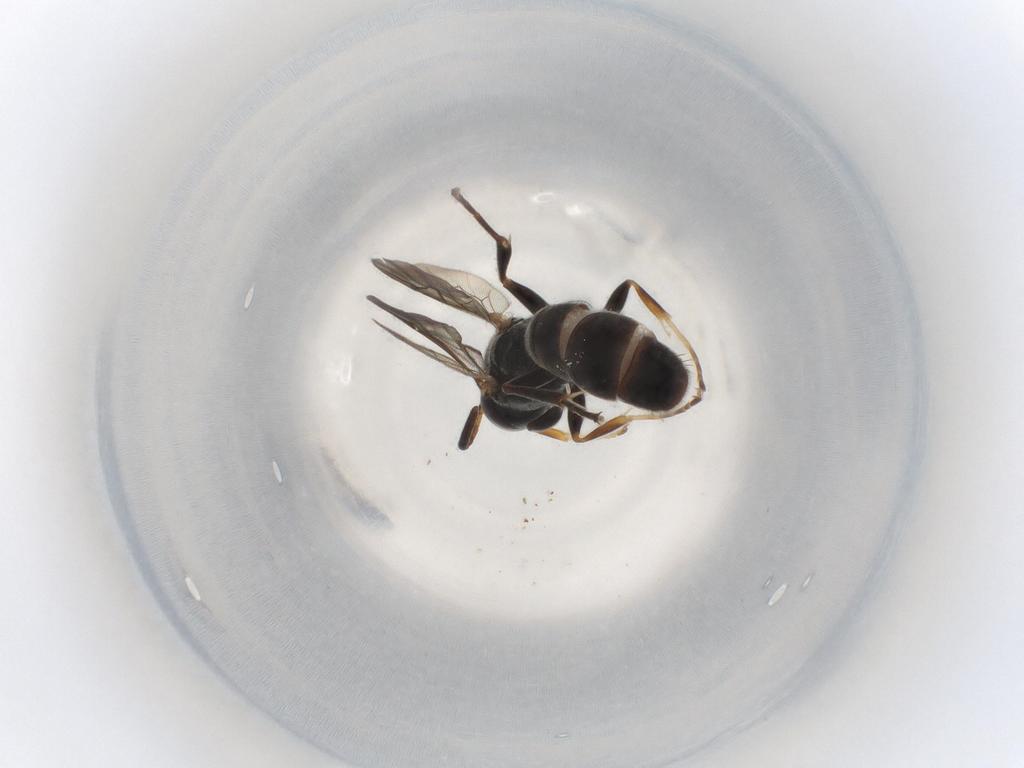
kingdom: Animalia
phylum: Arthropoda
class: Insecta
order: Hymenoptera
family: Crabronidae
